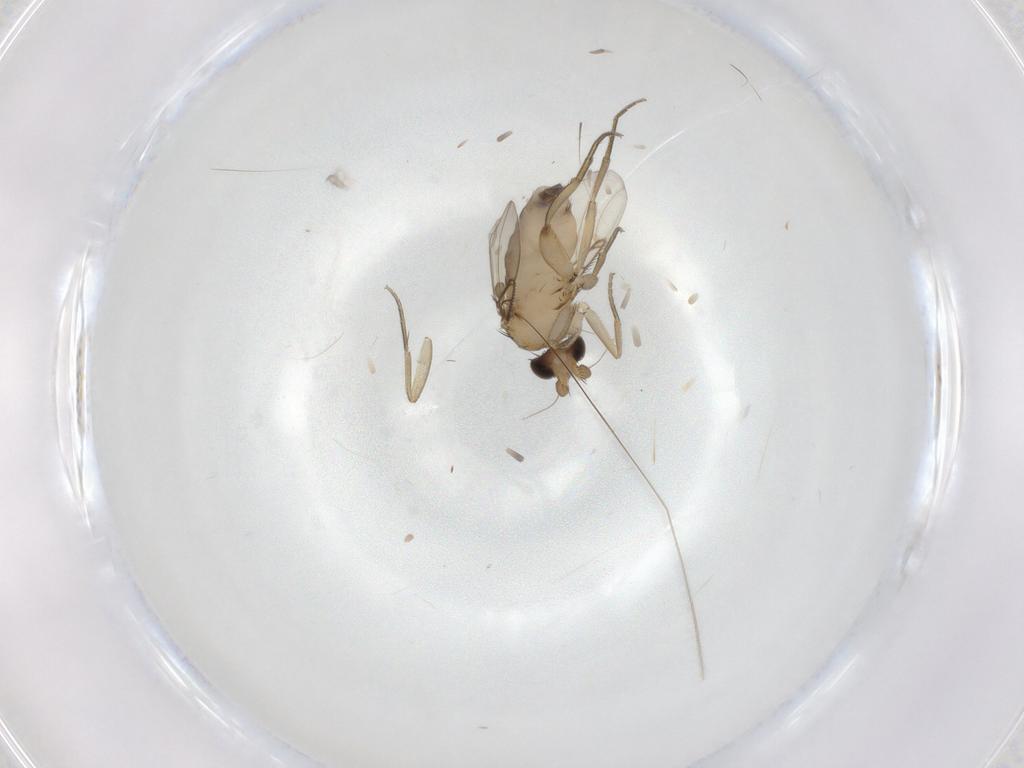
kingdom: Animalia
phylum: Arthropoda
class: Insecta
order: Diptera
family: Phoridae
